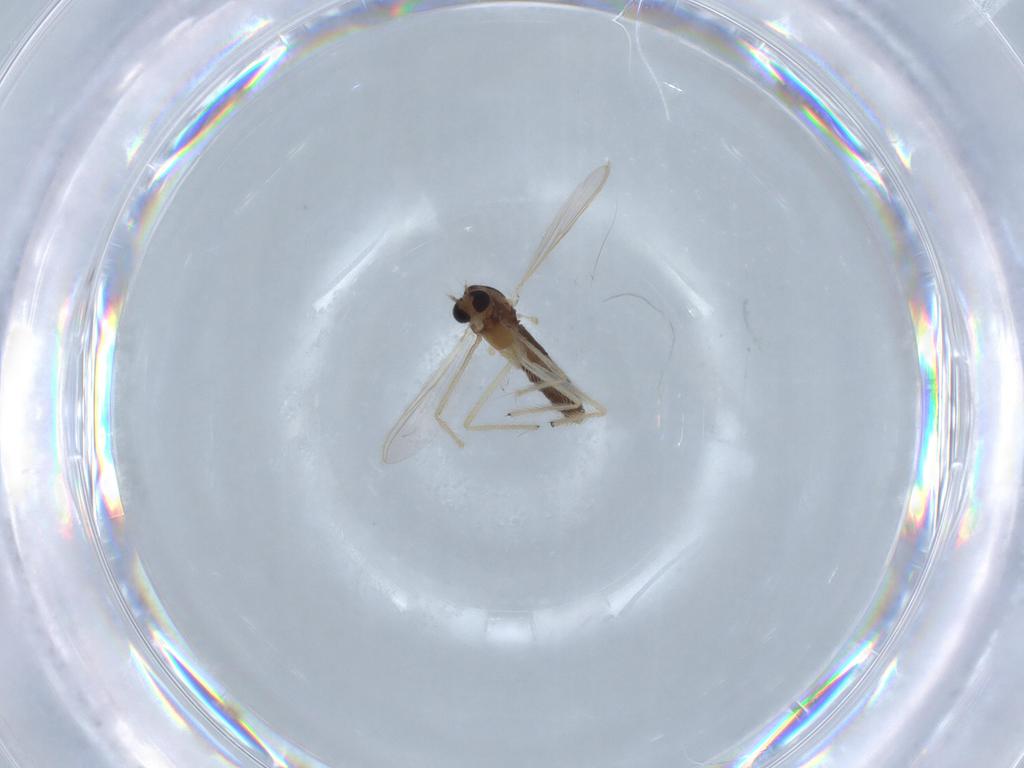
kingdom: Animalia
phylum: Arthropoda
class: Insecta
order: Diptera
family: Chironomidae
